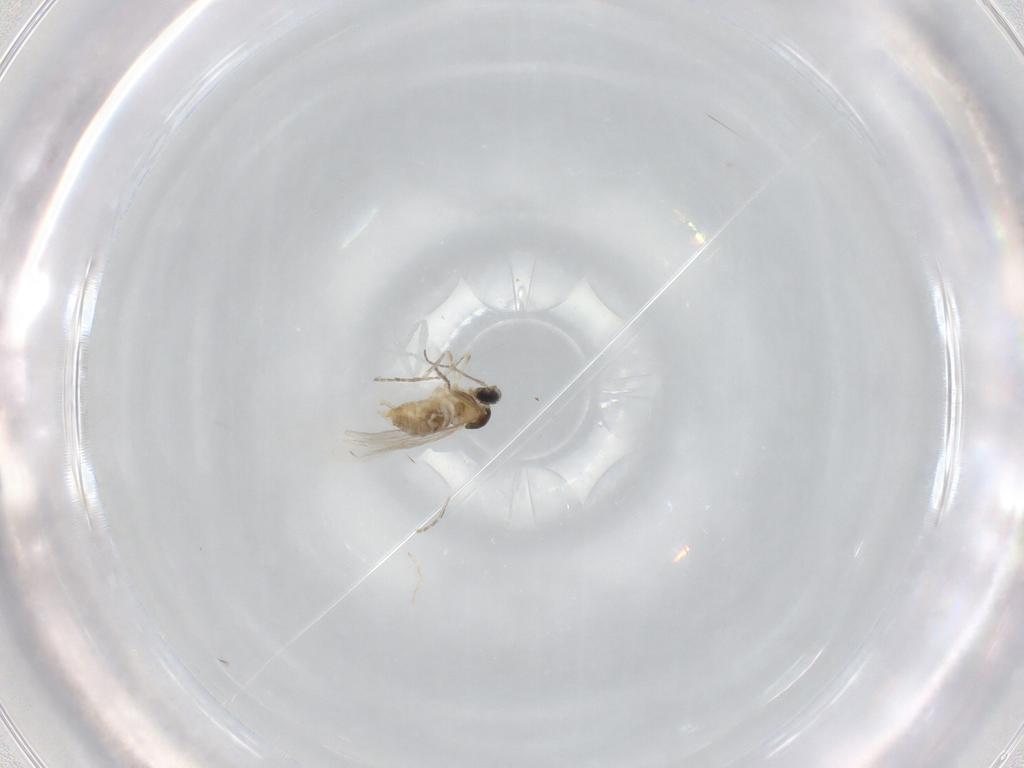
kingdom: Animalia
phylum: Arthropoda
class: Insecta
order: Diptera
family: Cecidomyiidae
